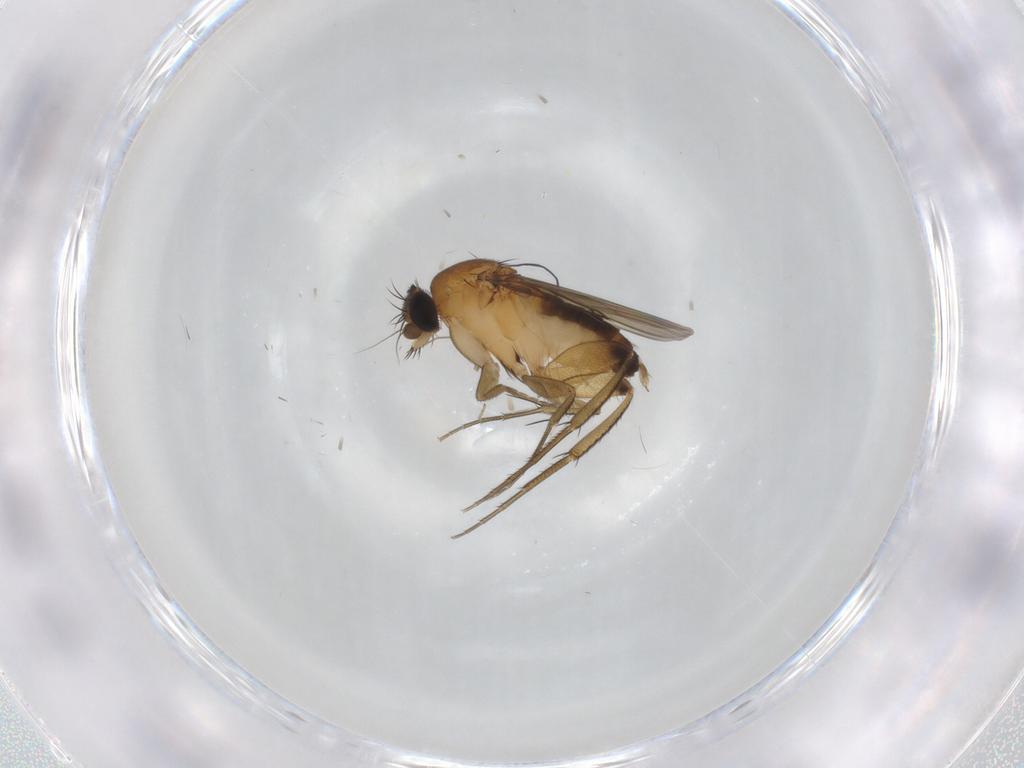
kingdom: Animalia
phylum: Arthropoda
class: Insecta
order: Diptera
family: Phoridae
